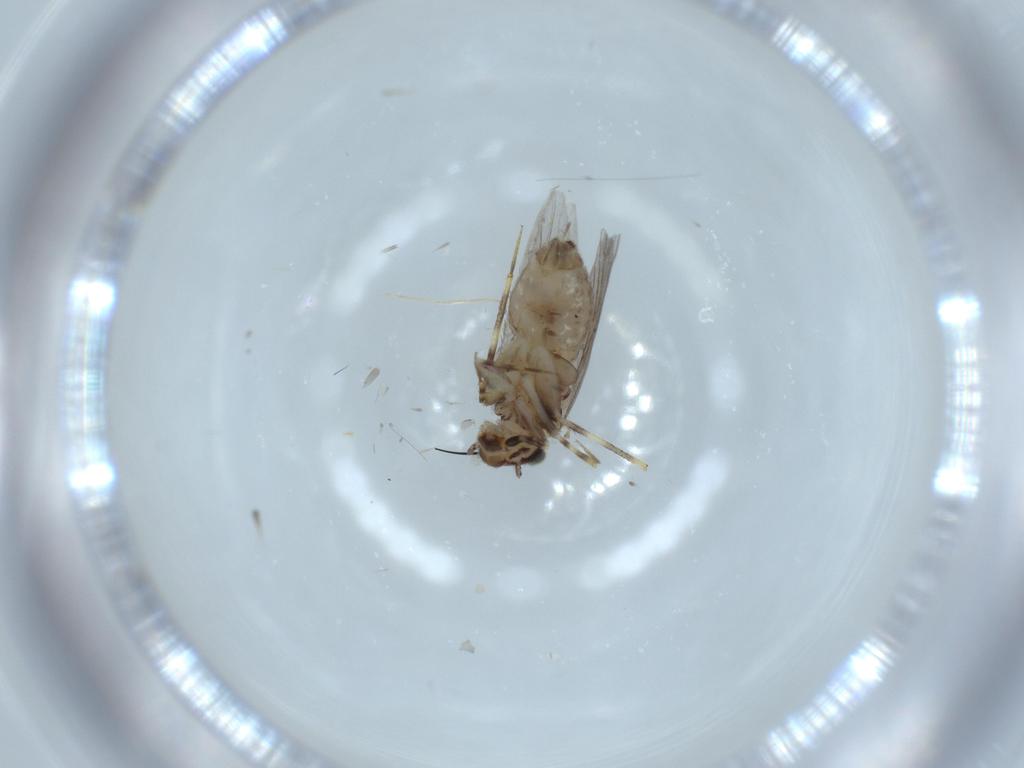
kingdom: Animalia
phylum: Arthropoda
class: Insecta
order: Psocodea
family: Lepidopsocidae
